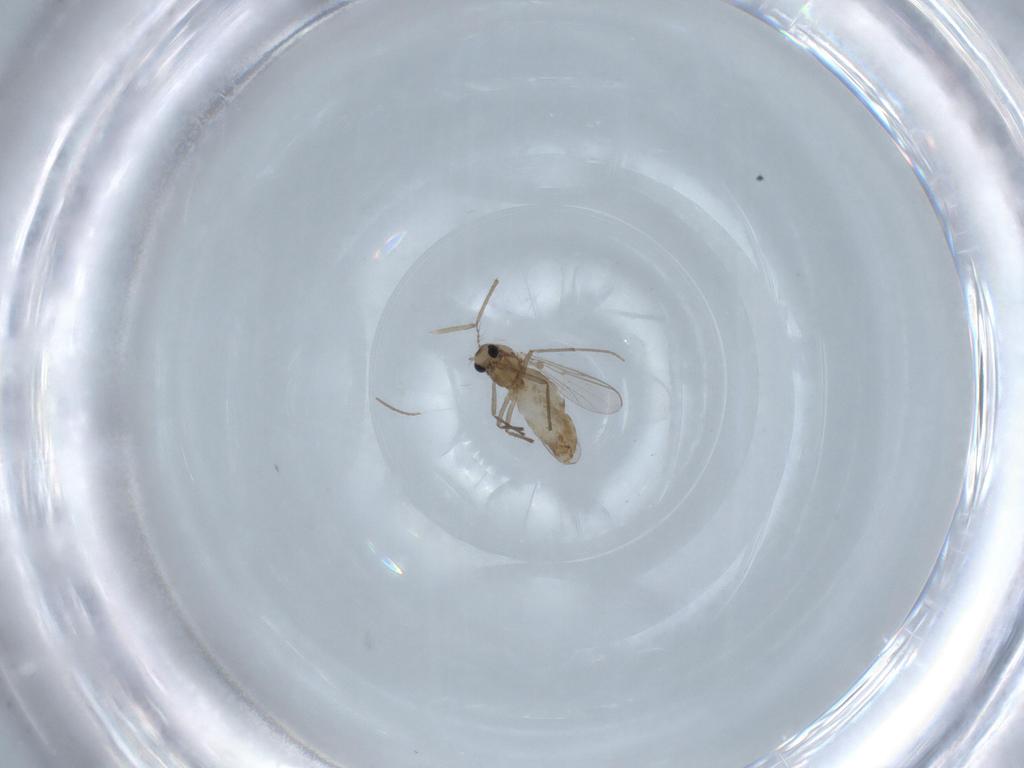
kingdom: Animalia
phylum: Arthropoda
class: Insecta
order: Diptera
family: Chironomidae
